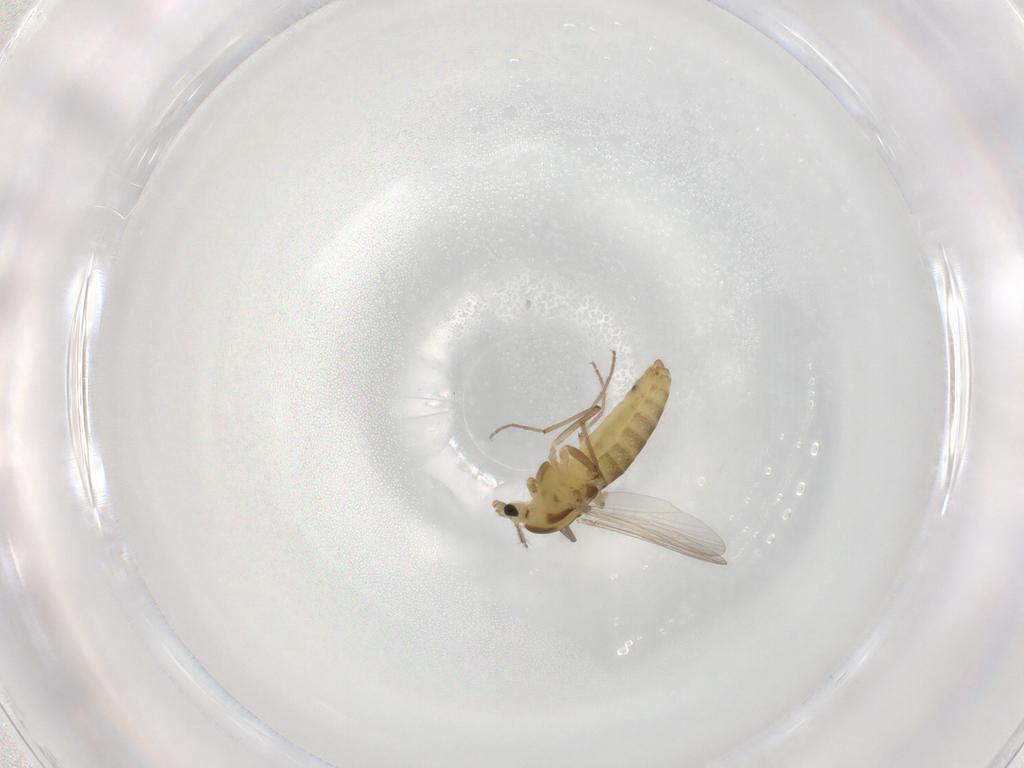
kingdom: Animalia
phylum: Arthropoda
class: Insecta
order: Diptera
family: Chironomidae
